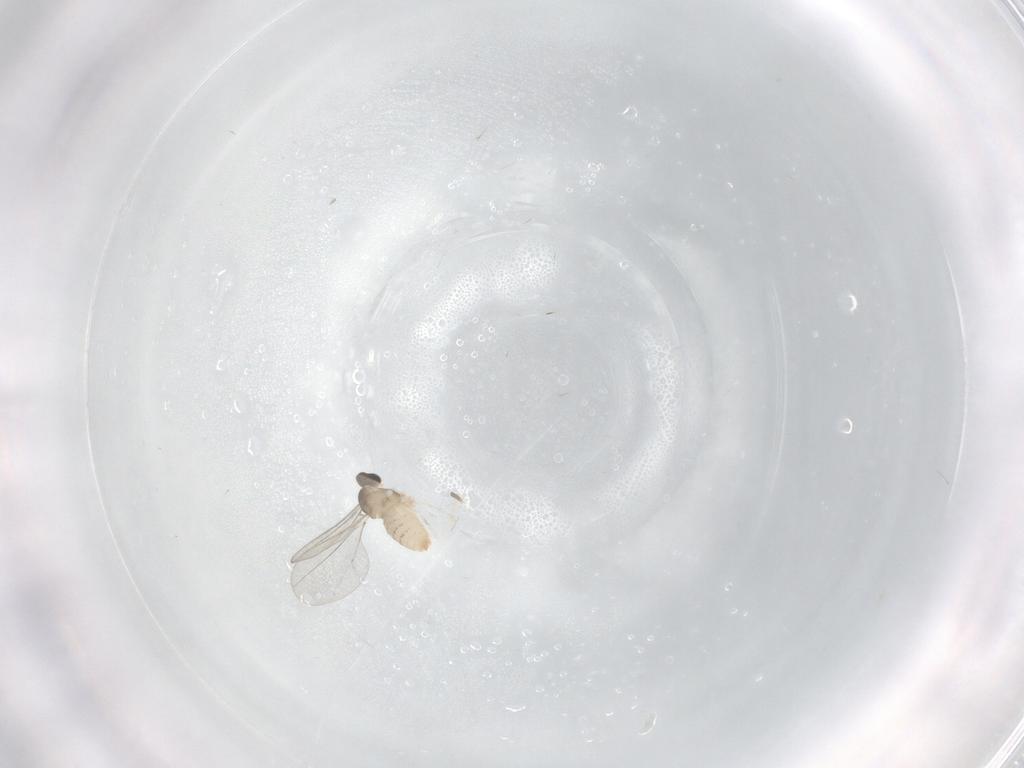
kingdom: Animalia
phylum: Arthropoda
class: Insecta
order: Diptera
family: Cecidomyiidae
